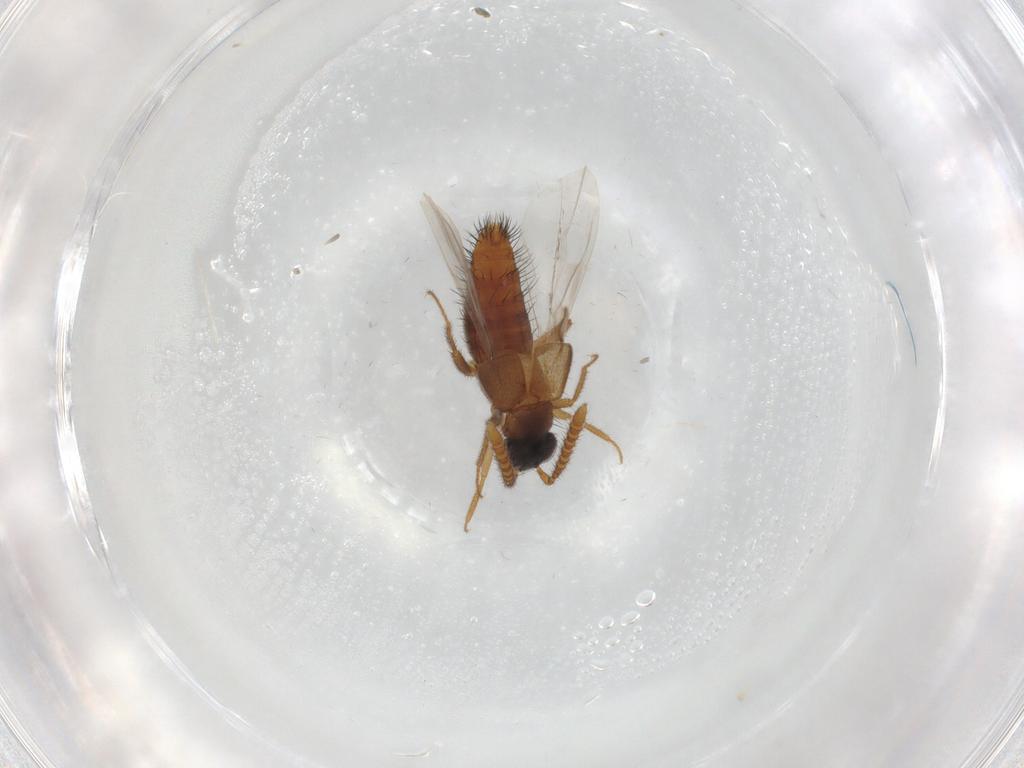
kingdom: Animalia
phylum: Arthropoda
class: Insecta
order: Coleoptera
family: Staphylinidae
